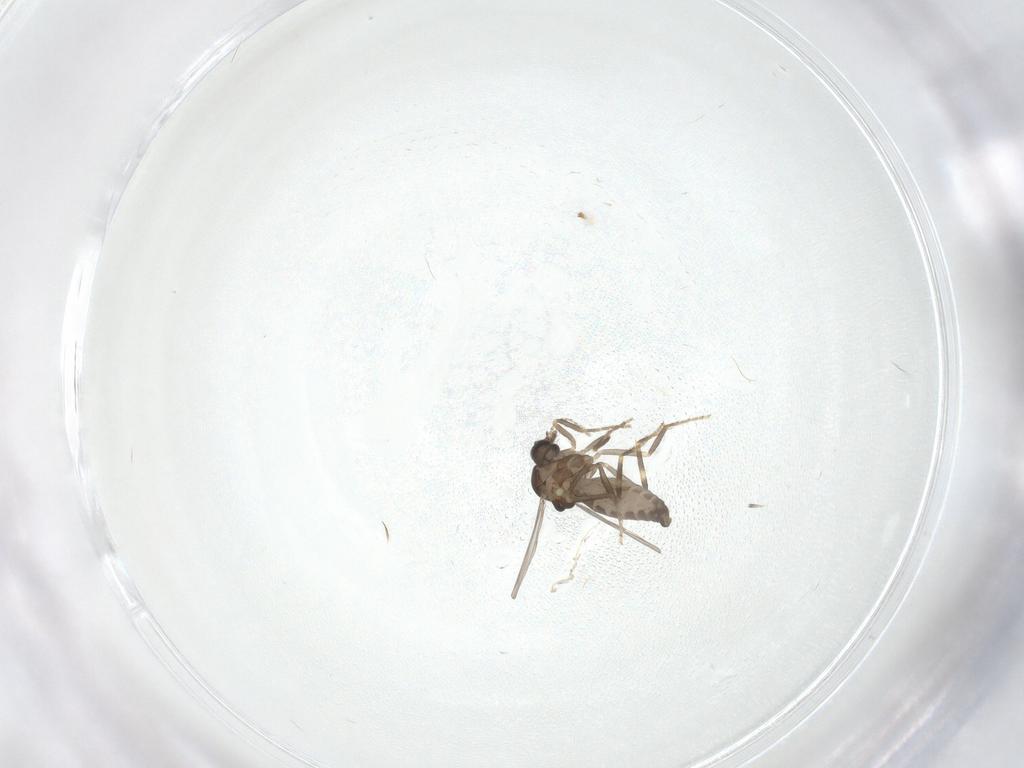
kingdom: Animalia
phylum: Arthropoda
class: Insecta
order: Diptera
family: Ceratopogonidae
